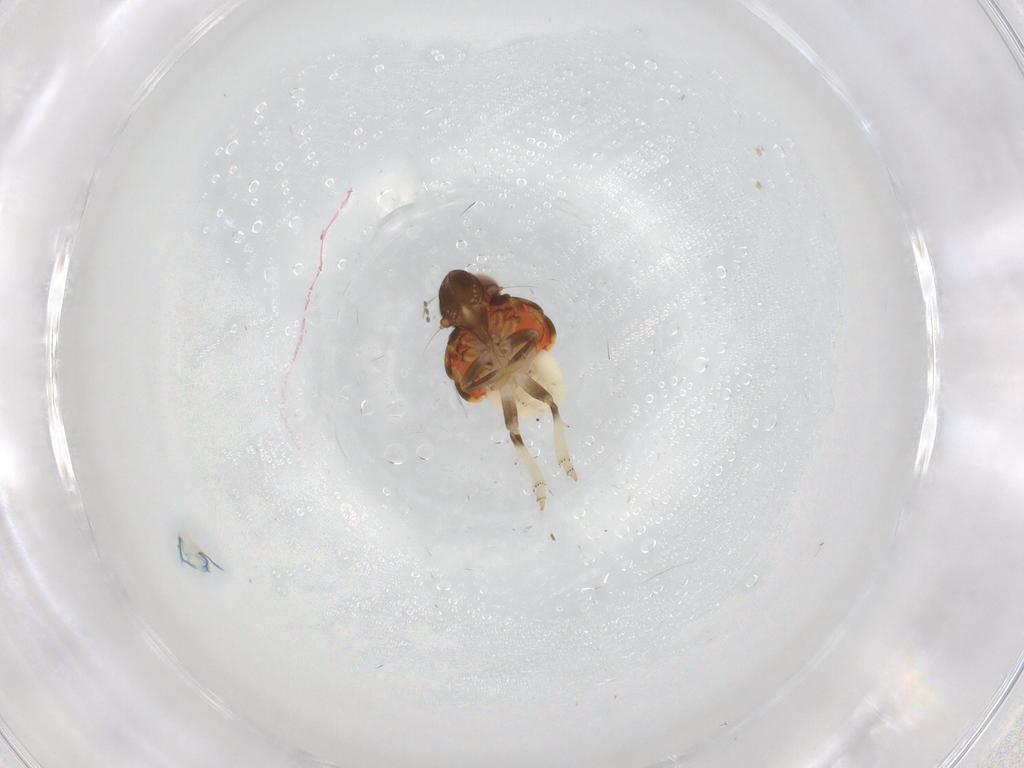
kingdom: Animalia
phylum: Arthropoda
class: Insecta
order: Hemiptera
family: Nogodinidae
